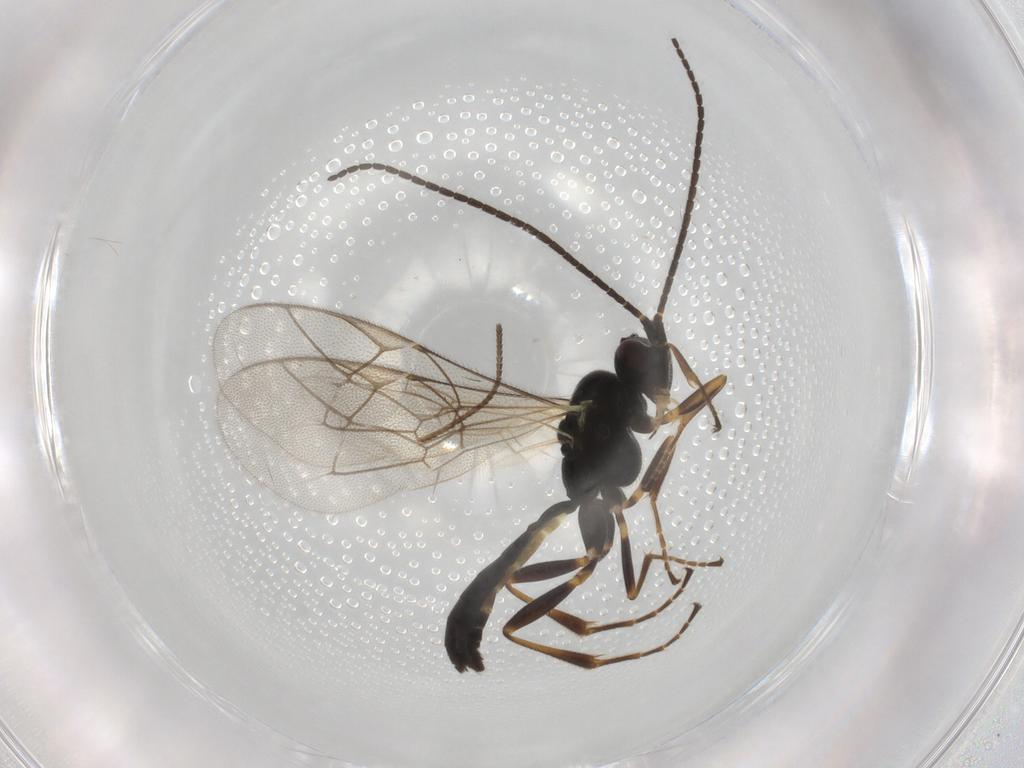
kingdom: Animalia
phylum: Arthropoda
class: Insecta
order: Hymenoptera
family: Ichneumonidae
